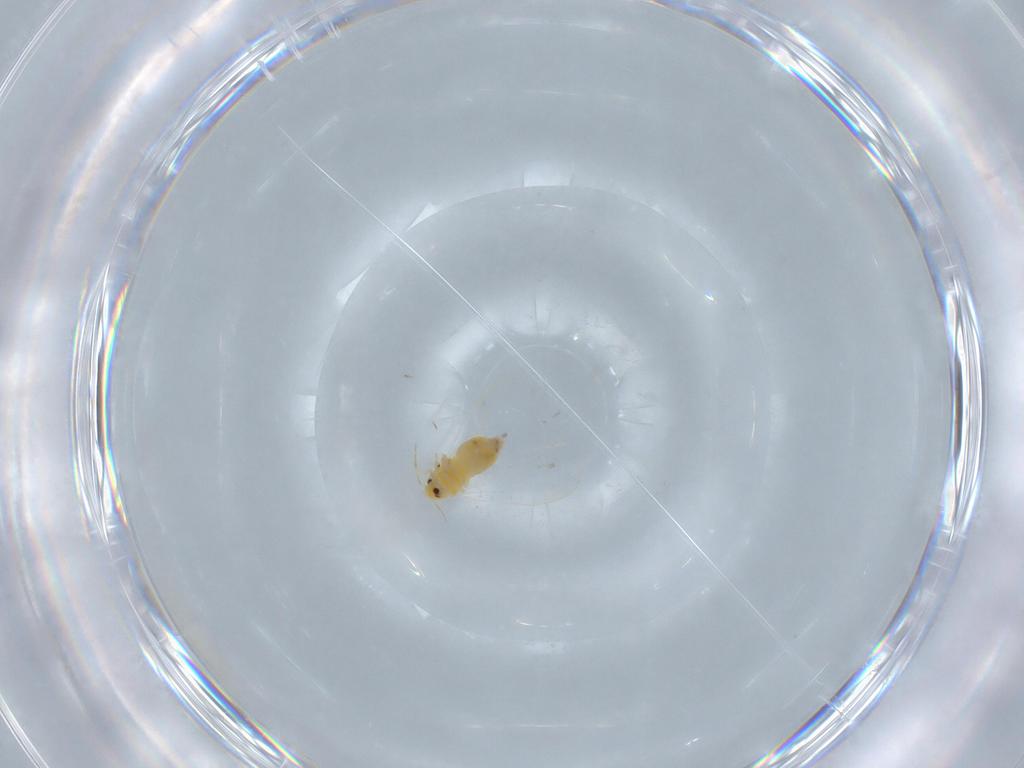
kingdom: Animalia
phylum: Arthropoda
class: Insecta
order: Hemiptera
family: Aleyrodidae
